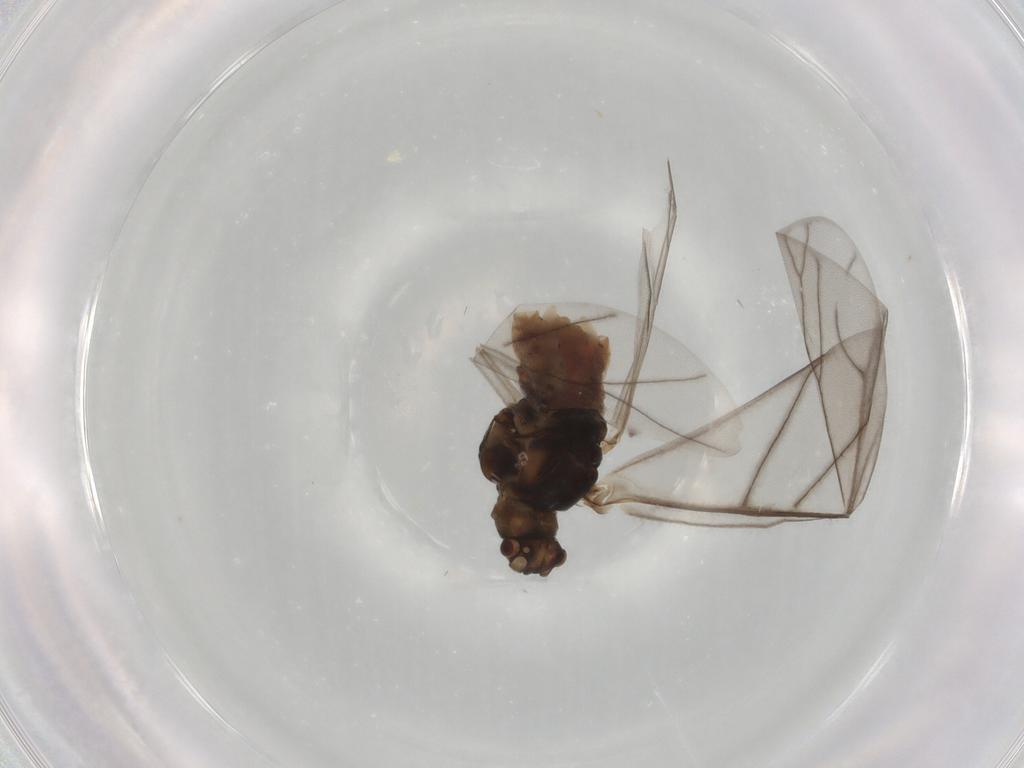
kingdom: Animalia
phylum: Arthropoda
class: Insecta
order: Hemiptera
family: Aphididae
